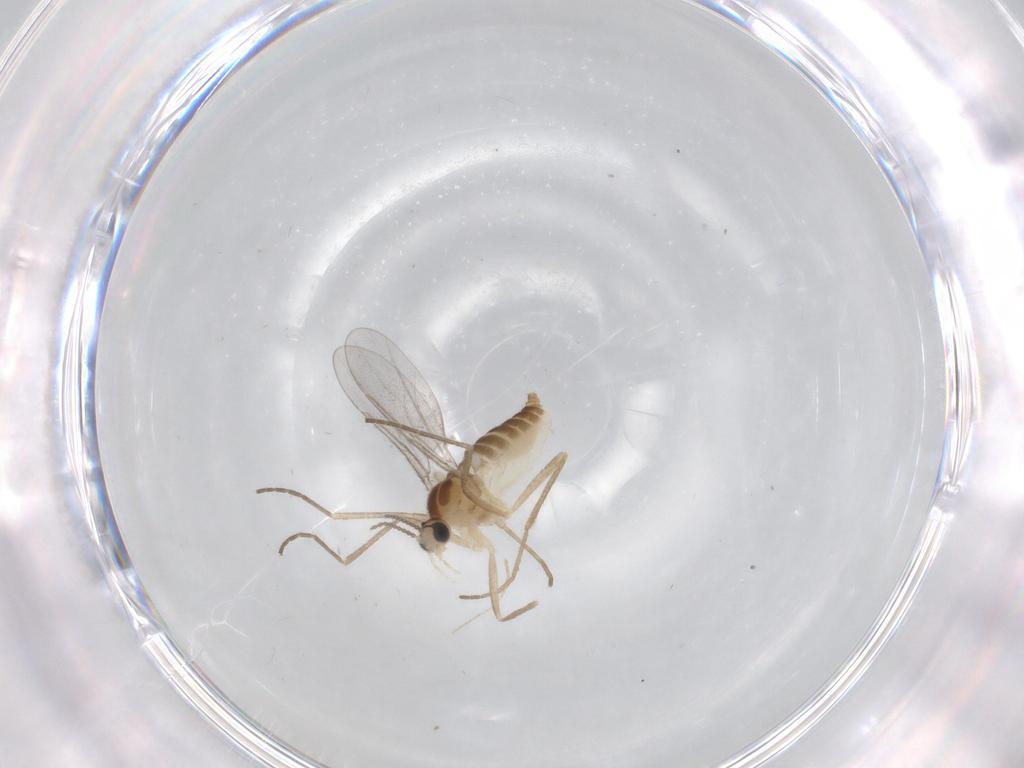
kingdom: Animalia
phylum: Arthropoda
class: Insecta
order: Diptera
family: Cecidomyiidae
